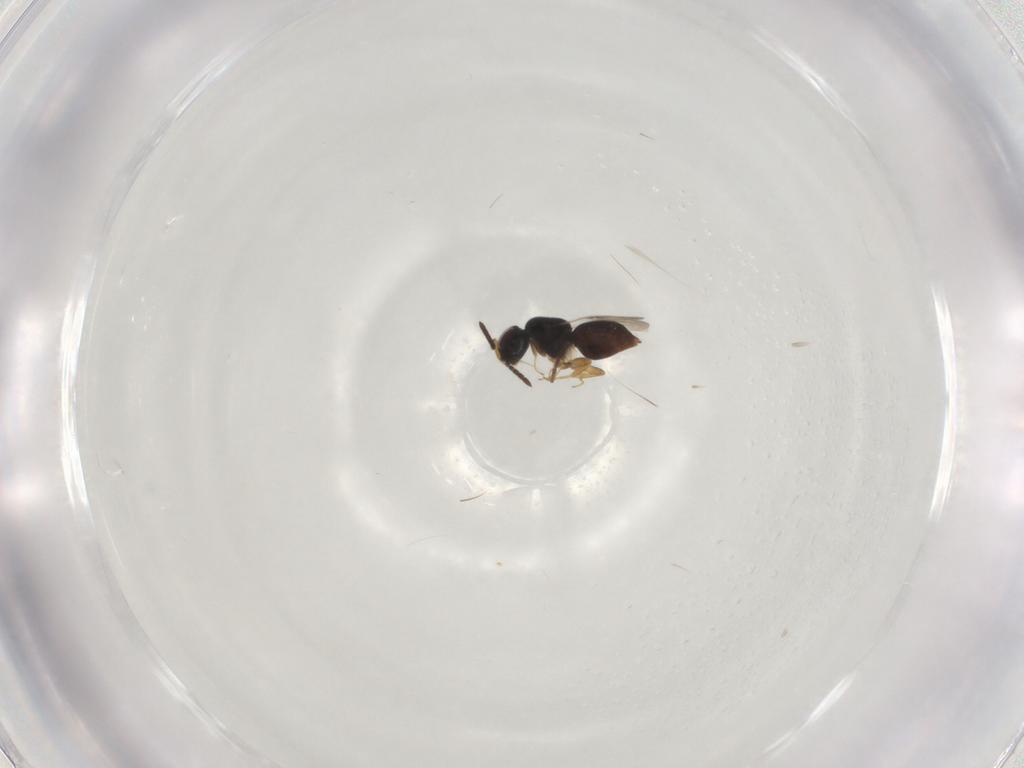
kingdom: Animalia
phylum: Arthropoda
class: Insecta
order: Hymenoptera
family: Ceraphronidae
